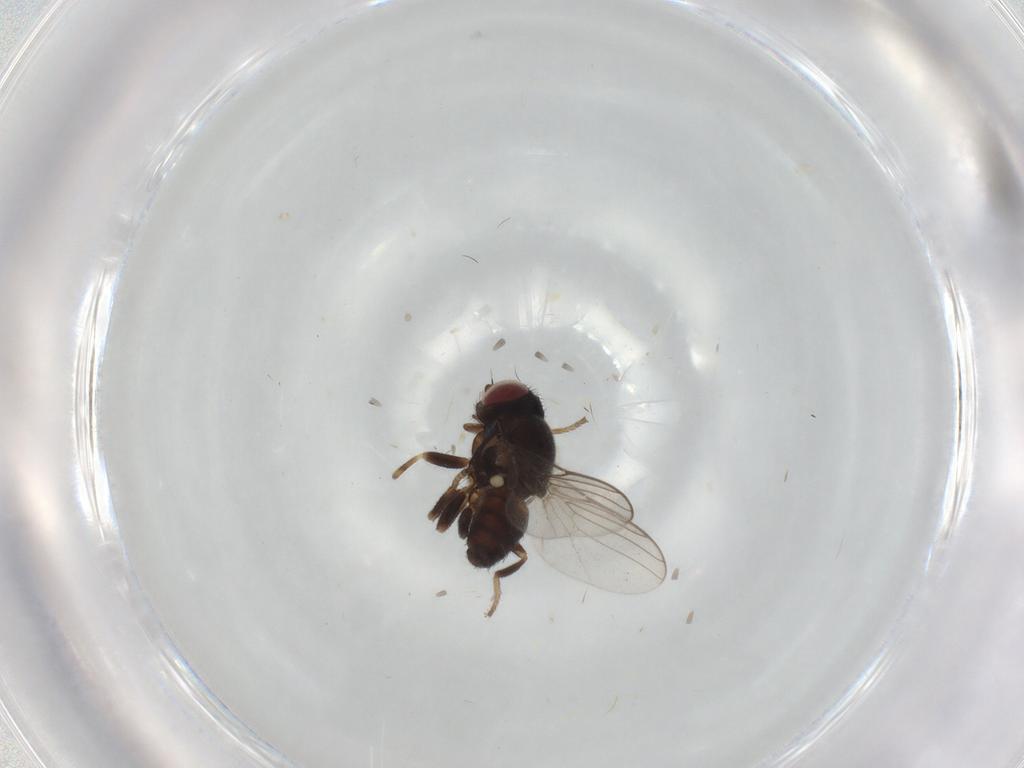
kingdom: Animalia
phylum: Arthropoda
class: Insecta
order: Diptera
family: Chloropidae
